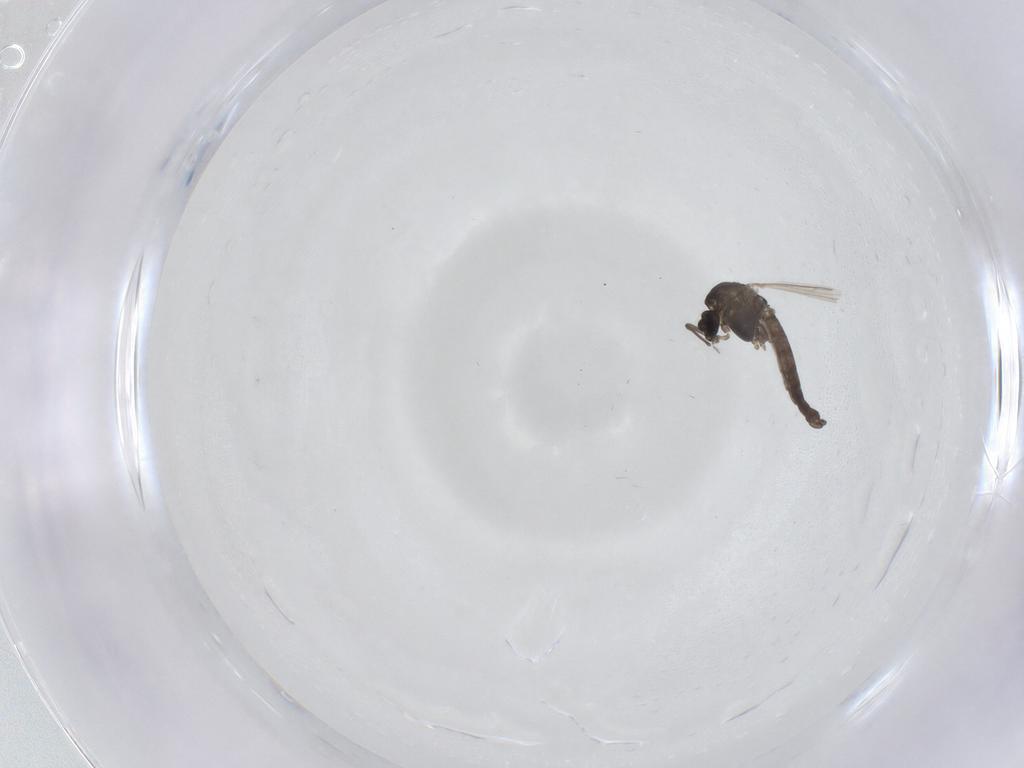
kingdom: Animalia
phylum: Arthropoda
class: Insecta
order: Diptera
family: Chironomidae
